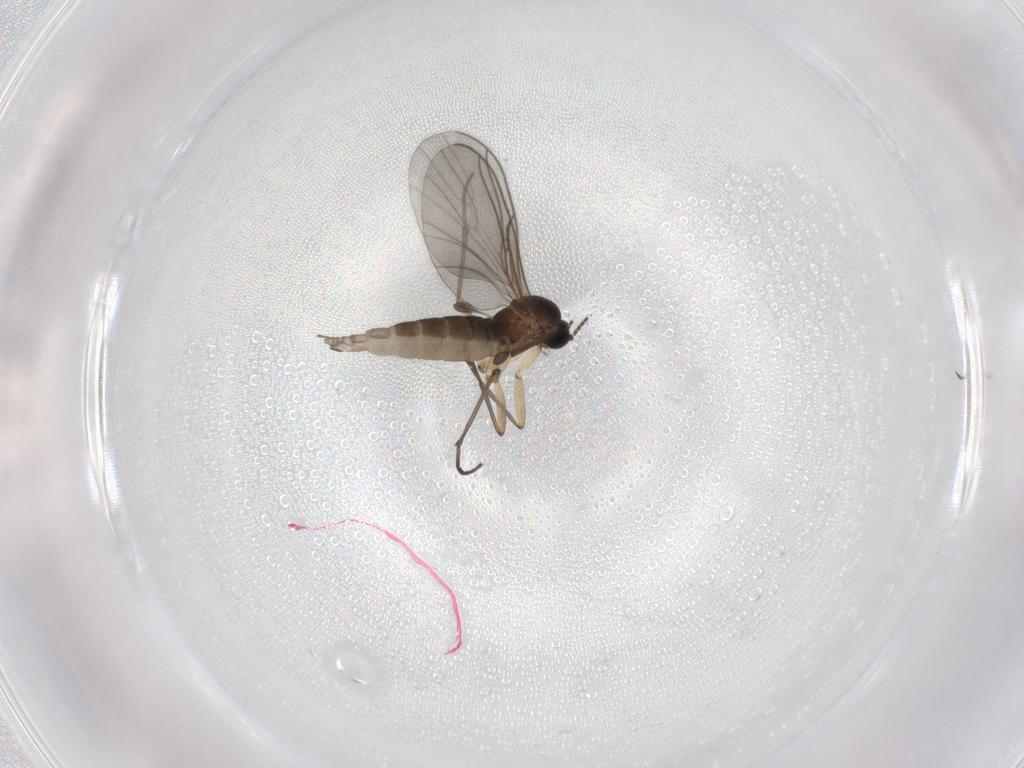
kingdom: Animalia
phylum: Arthropoda
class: Insecta
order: Diptera
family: Sciaridae
